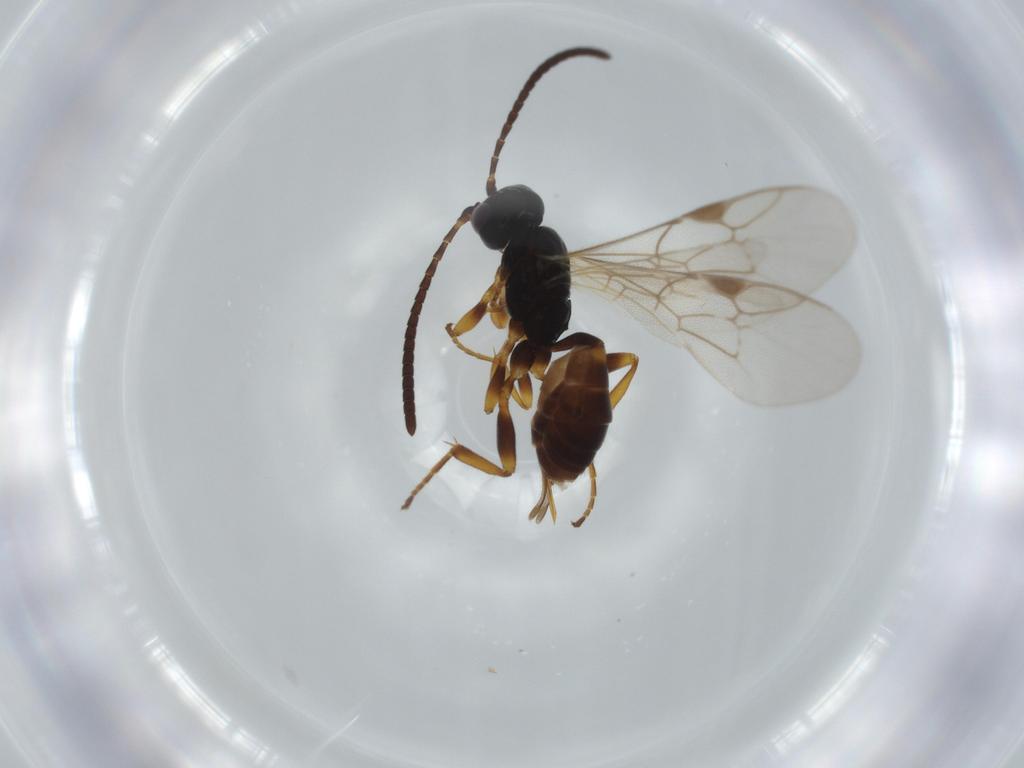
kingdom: Animalia
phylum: Arthropoda
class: Insecta
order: Hymenoptera
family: Ichneumonidae
